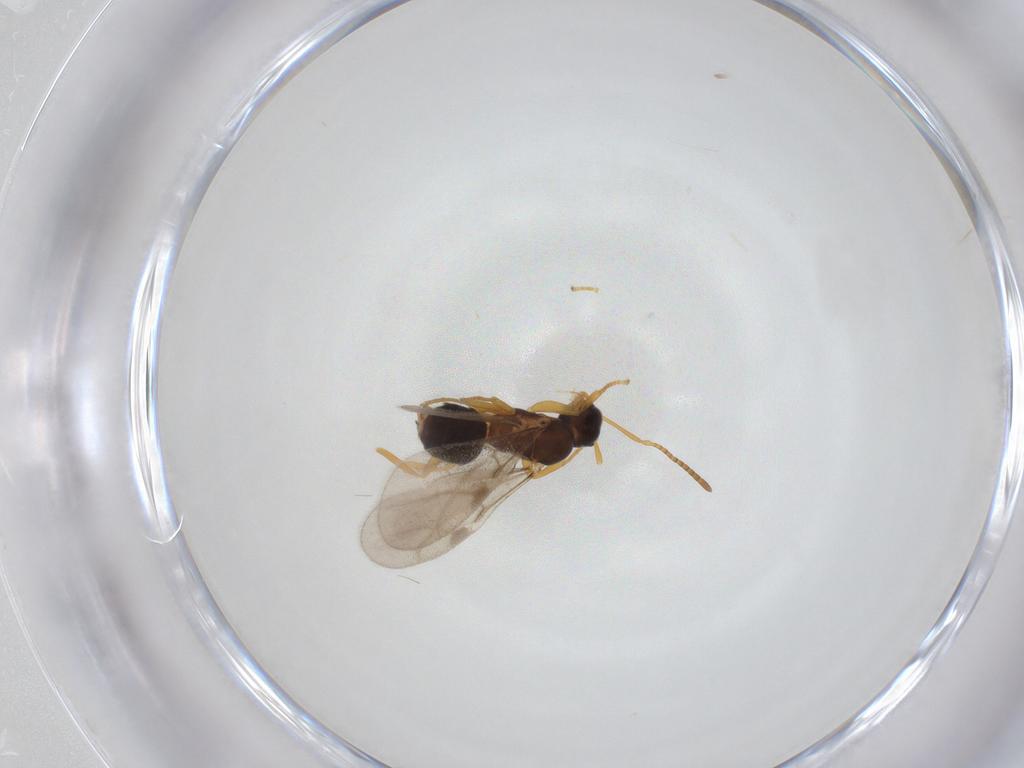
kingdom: Animalia
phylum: Arthropoda
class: Insecta
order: Hymenoptera
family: Formicidae
